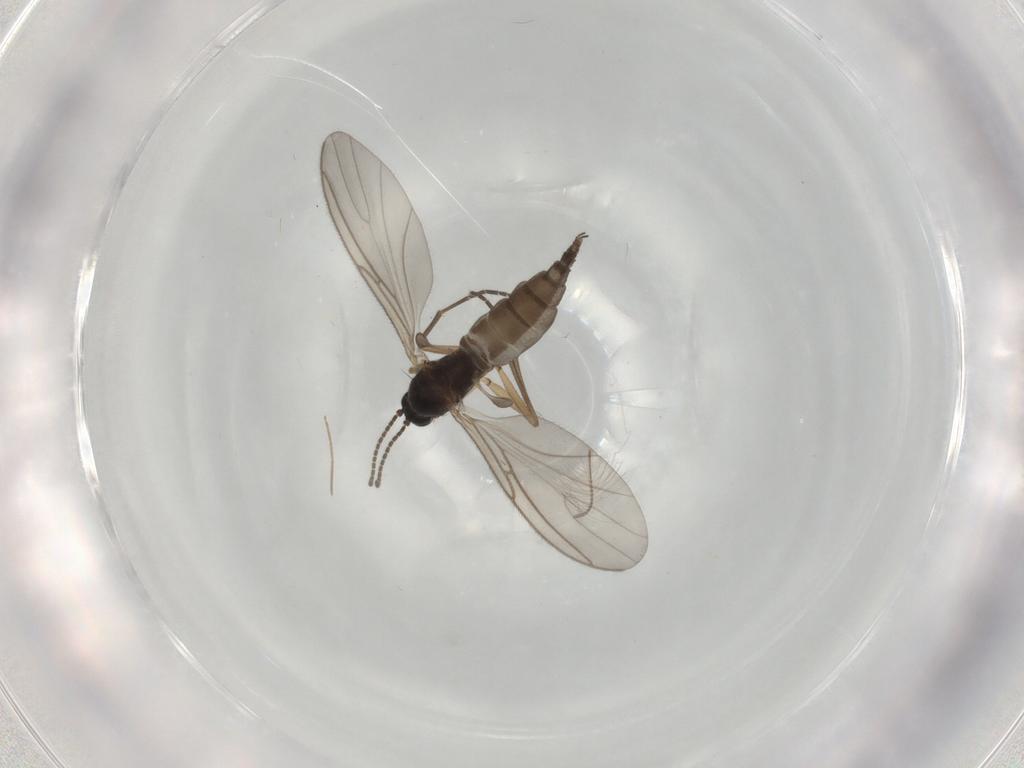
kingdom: Animalia
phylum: Arthropoda
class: Insecta
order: Diptera
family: Sciaridae
